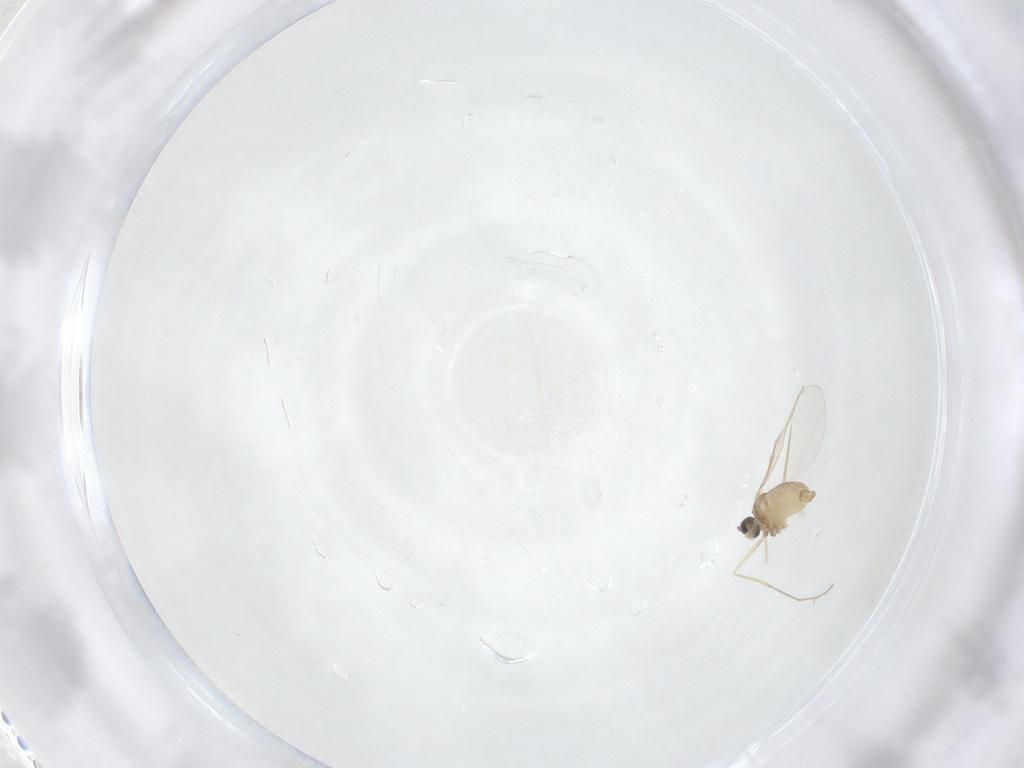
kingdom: Animalia
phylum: Arthropoda
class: Insecta
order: Diptera
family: Cecidomyiidae
